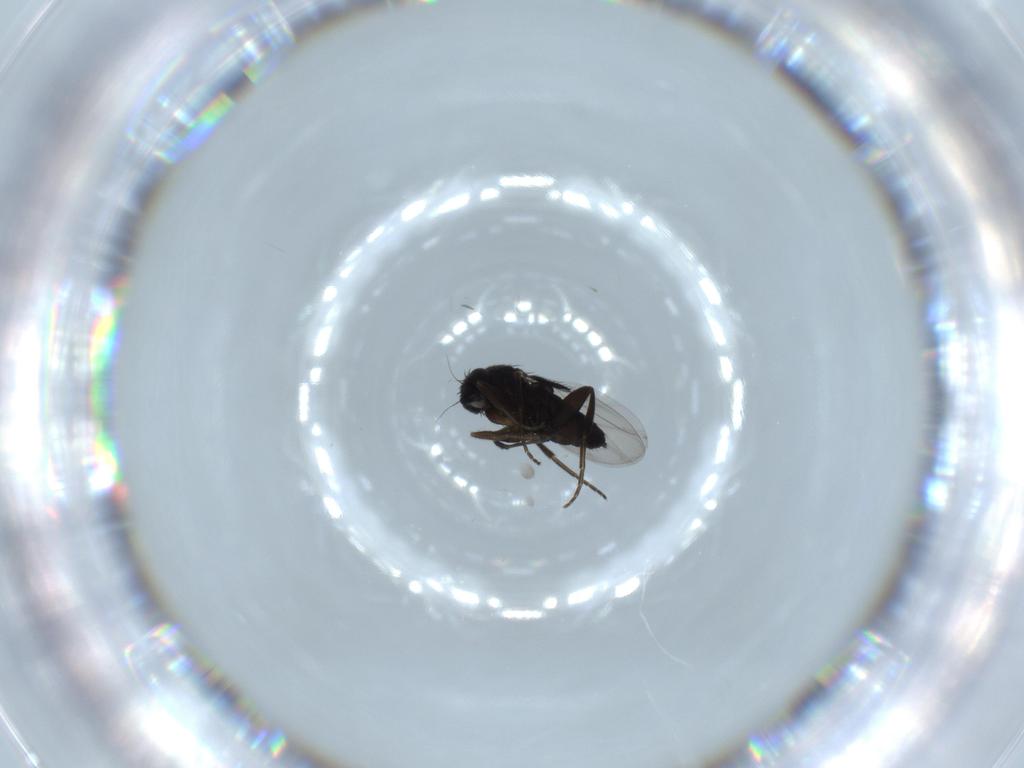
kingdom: Animalia
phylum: Arthropoda
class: Insecta
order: Diptera
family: Phoridae
